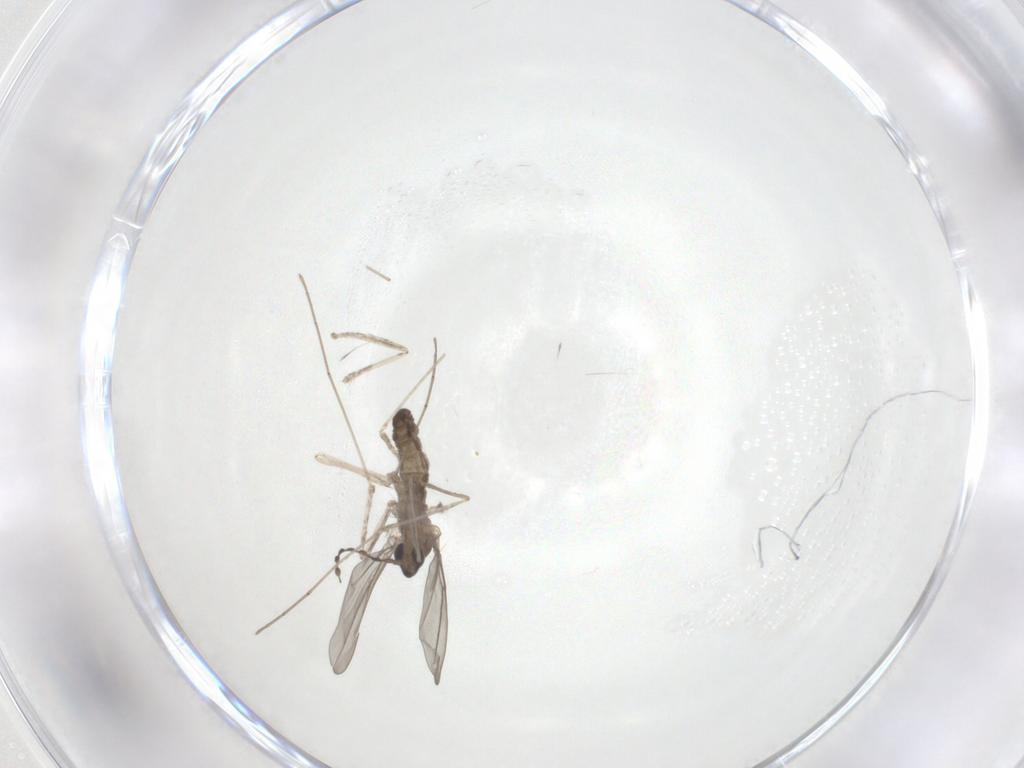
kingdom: Animalia
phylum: Arthropoda
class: Insecta
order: Diptera
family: Cecidomyiidae
